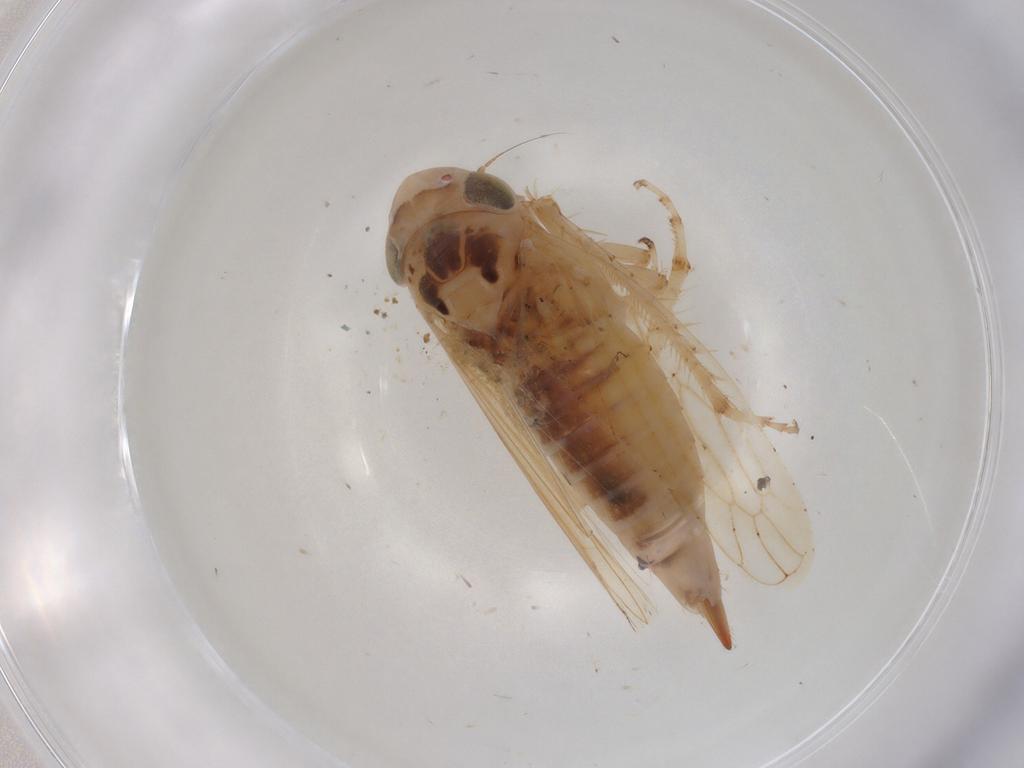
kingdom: Animalia
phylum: Arthropoda
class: Insecta
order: Hemiptera
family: Cicadellidae
